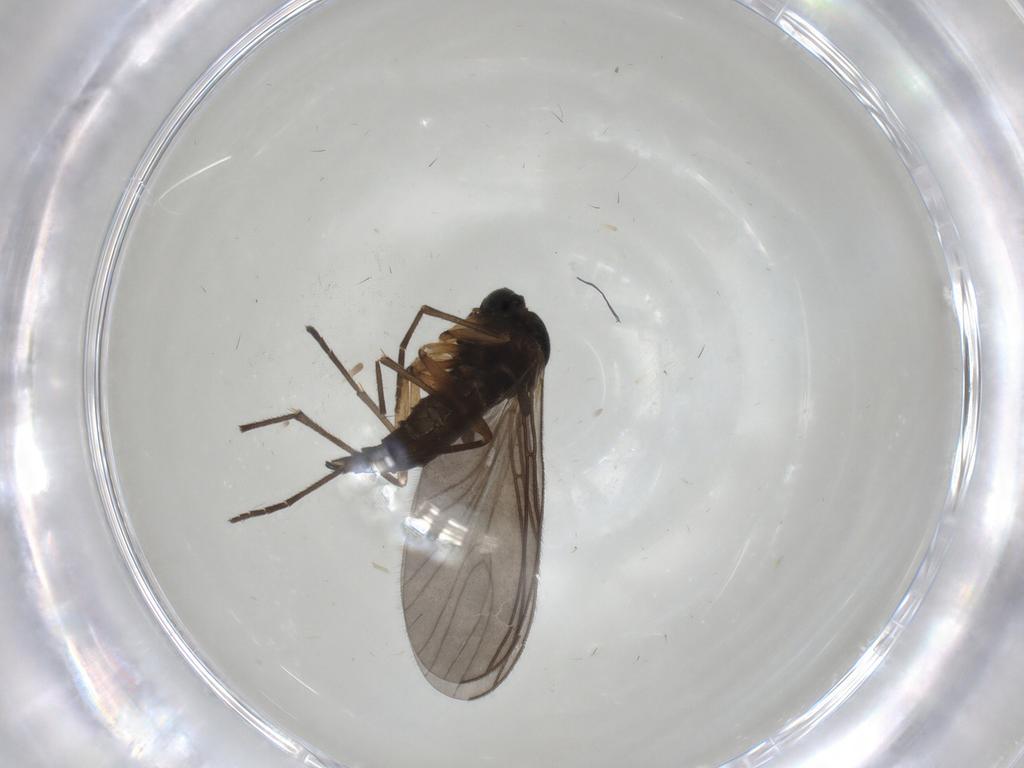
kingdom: Animalia
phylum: Arthropoda
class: Insecta
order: Diptera
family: Sciaridae
